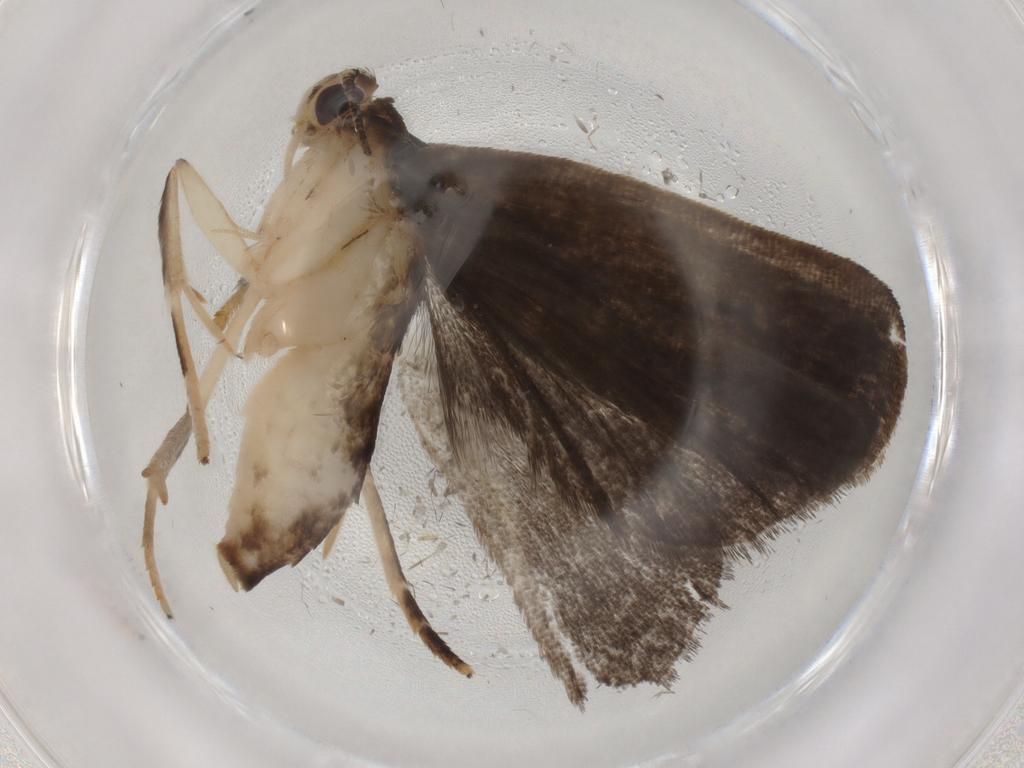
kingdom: Animalia
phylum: Arthropoda
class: Insecta
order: Lepidoptera
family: Gelechiidae
